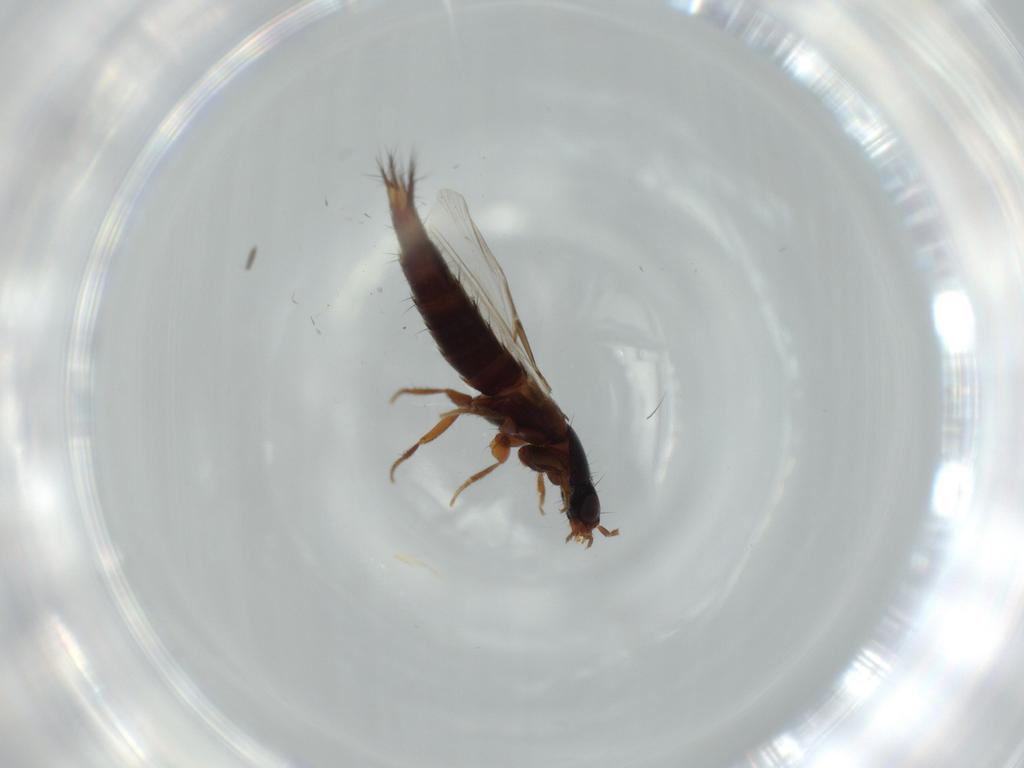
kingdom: Animalia
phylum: Arthropoda
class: Insecta
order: Coleoptera
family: Staphylinidae
